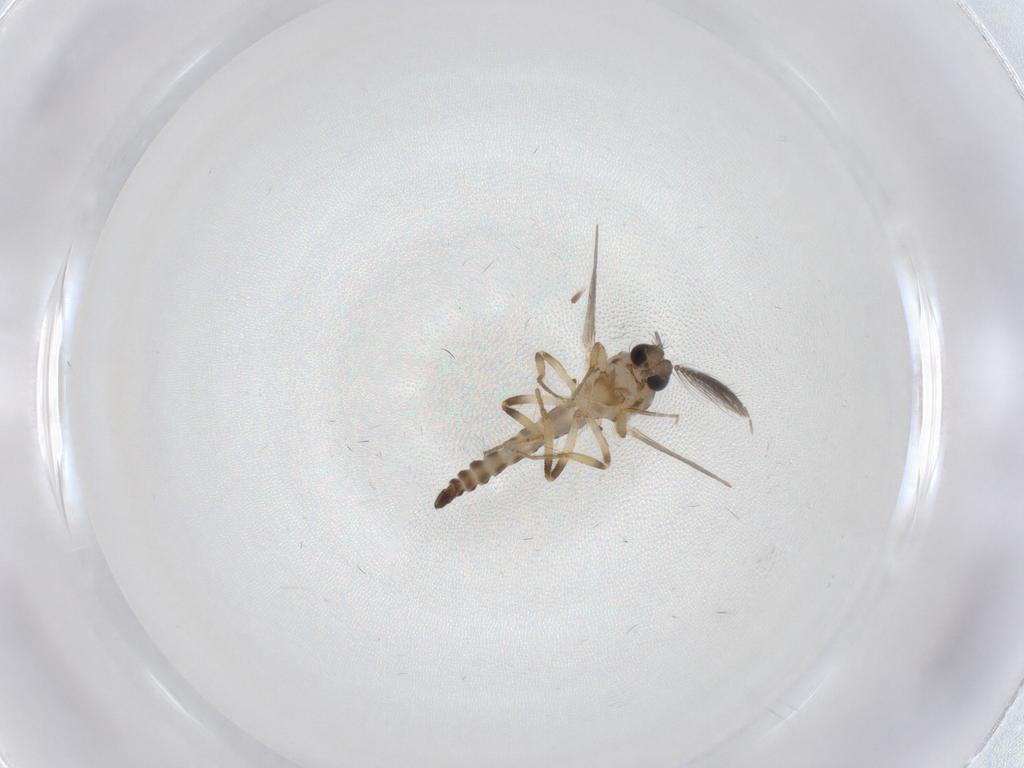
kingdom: Animalia
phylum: Arthropoda
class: Insecta
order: Diptera
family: Ceratopogonidae
